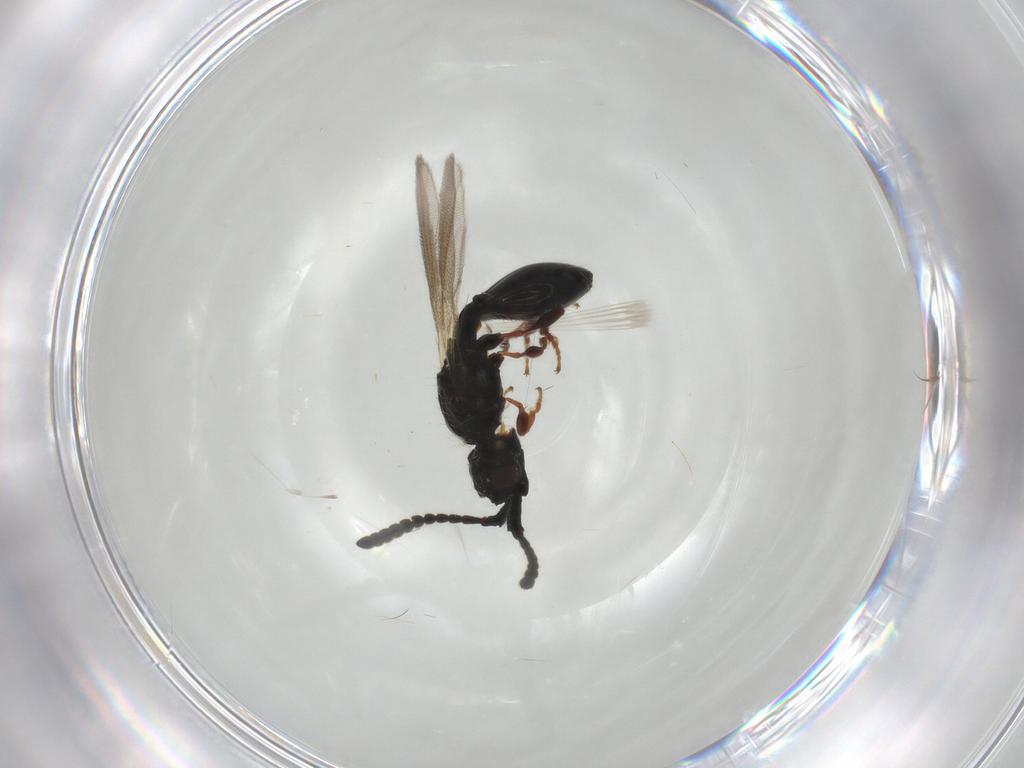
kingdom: Animalia
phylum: Arthropoda
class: Insecta
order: Hymenoptera
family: Diapriidae
